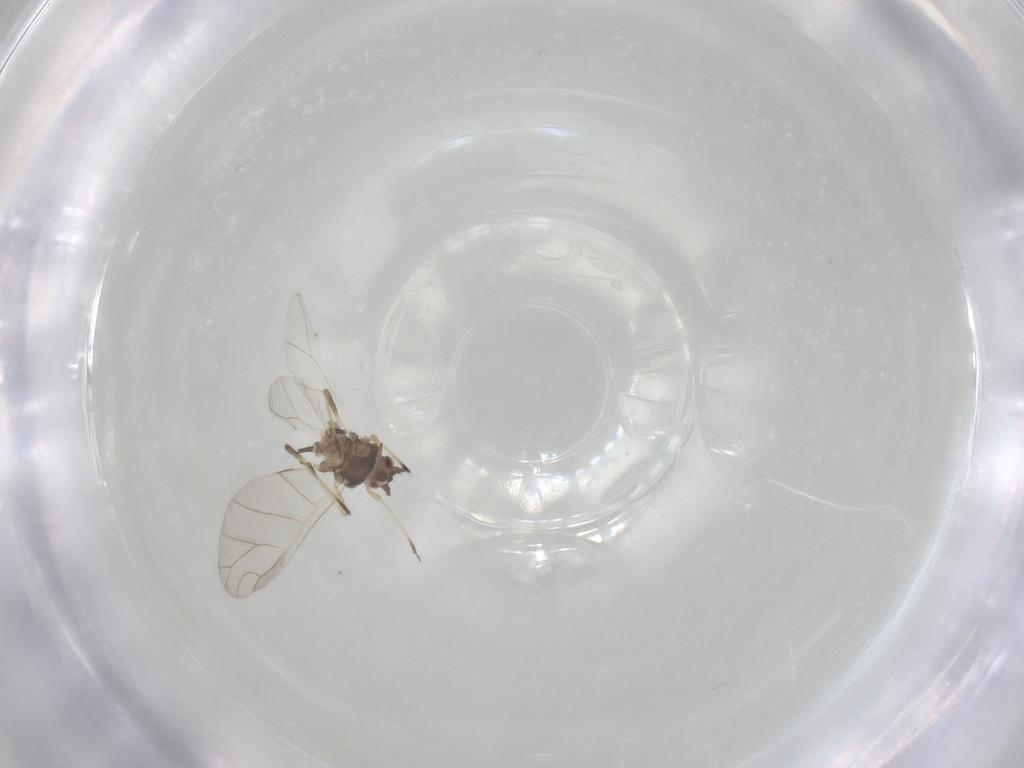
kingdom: Animalia
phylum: Arthropoda
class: Insecta
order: Hemiptera
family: Aphididae
